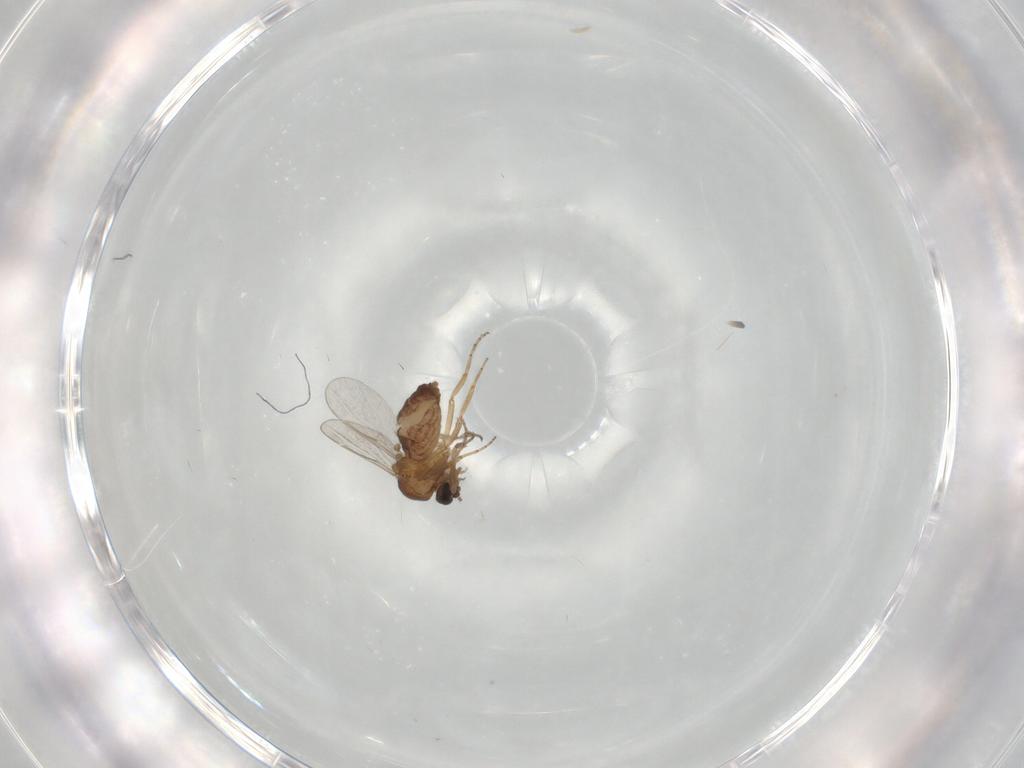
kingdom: Animalia
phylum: Arthropoda
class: Insecta
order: Diptera
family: Ceratopogonidae
